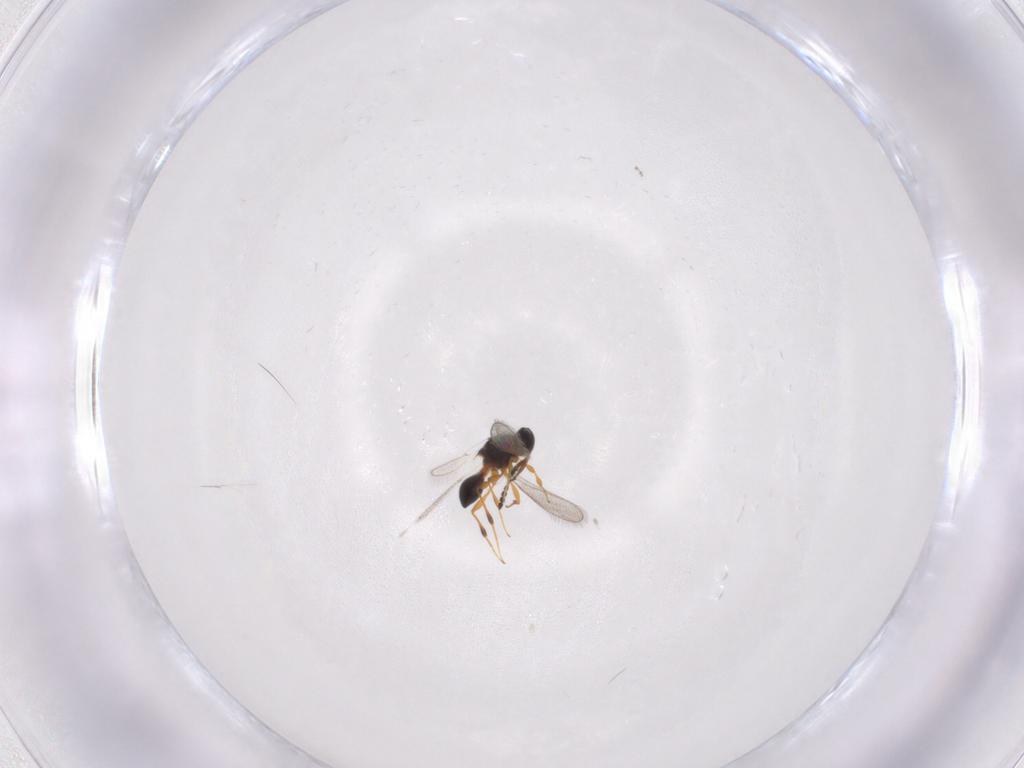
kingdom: Animalia
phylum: Arthropoda
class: Insecta
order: Hymenoptera
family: Platygastridae
